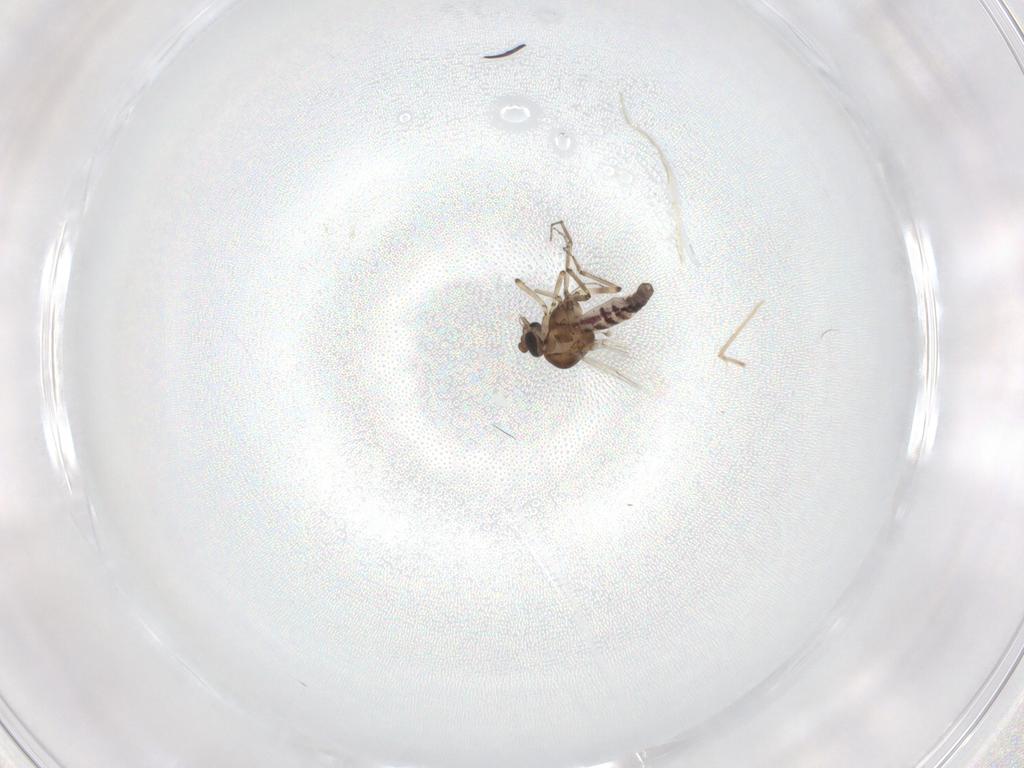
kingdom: Animalia
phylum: Arthropoda
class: Insecta
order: Diptera
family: Ceratopogonidae
